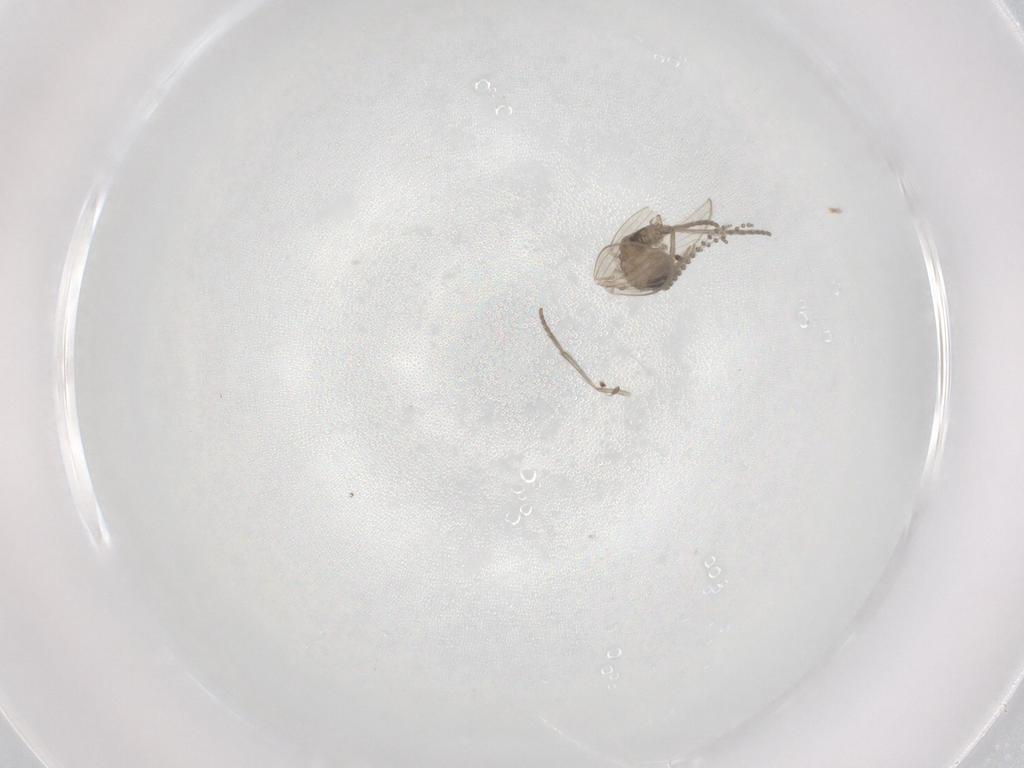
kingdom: Animalia
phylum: Arthropoda
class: Insecta
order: Diptera
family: Psychodidae
